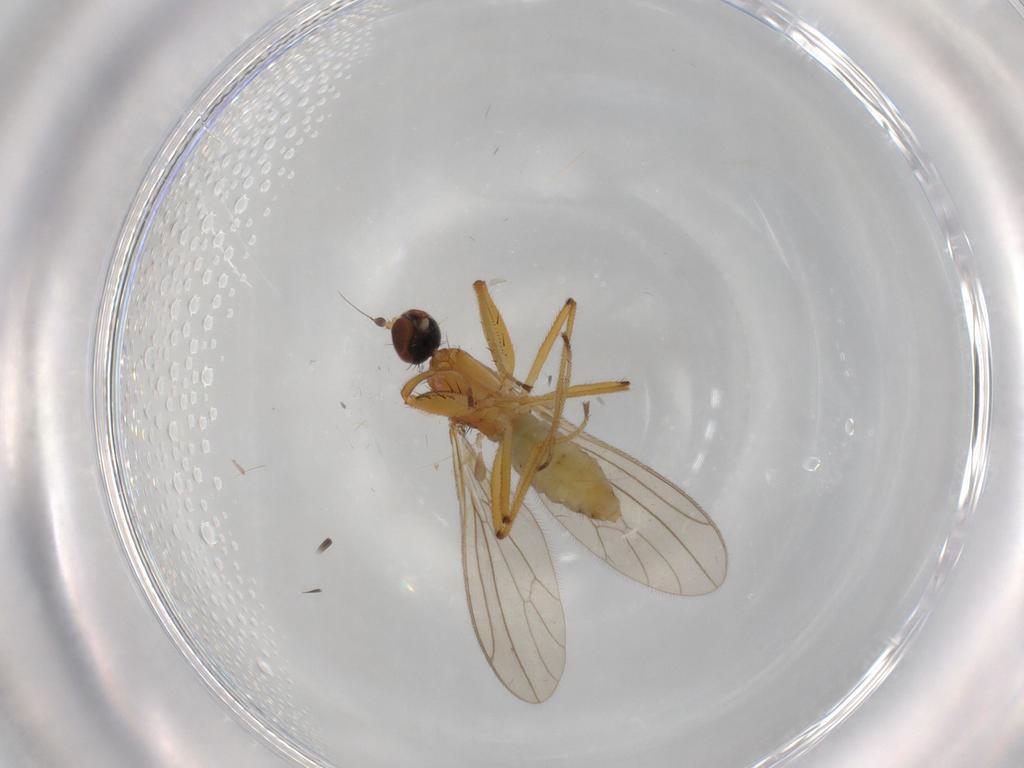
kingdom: Animalia
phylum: Arthropoda
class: Insecta
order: Diptera
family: Empididae
